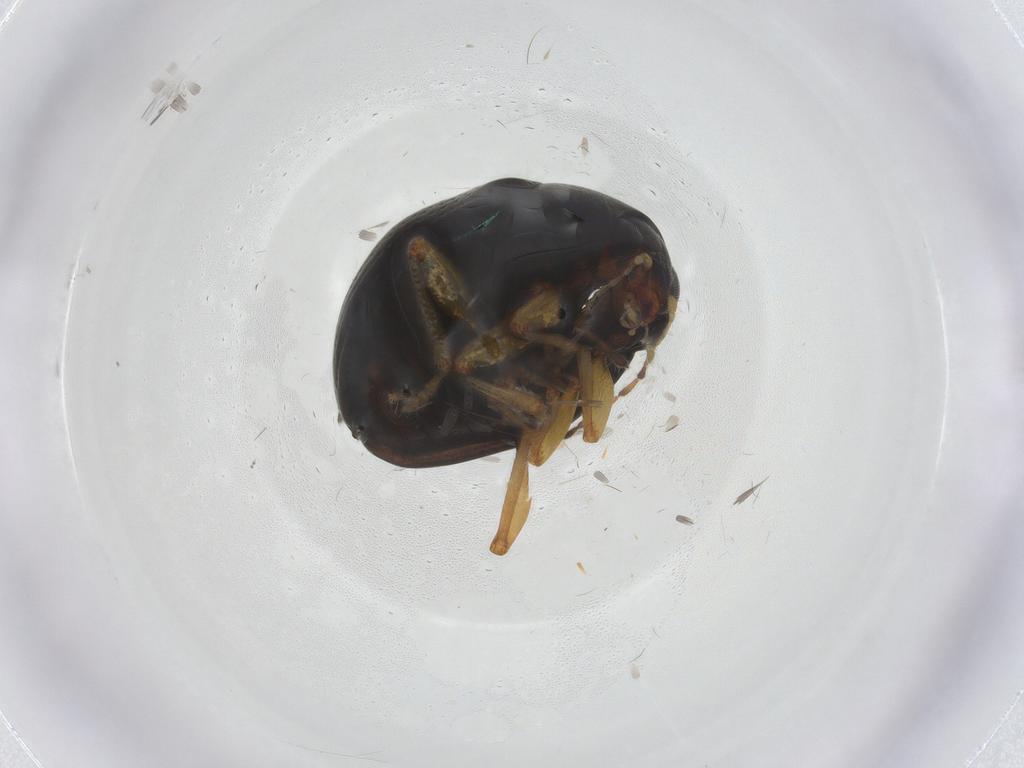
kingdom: Animalia
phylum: Arthropoda
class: Insecta
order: Coleoptera
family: Chrysomelidae
